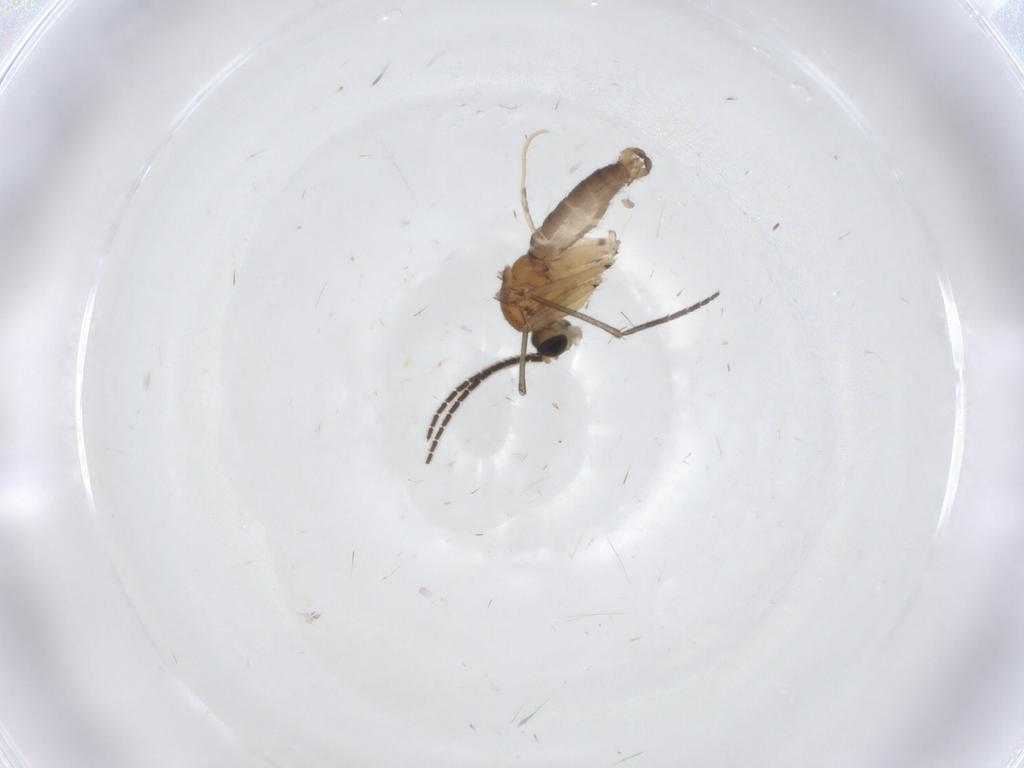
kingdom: Animalia
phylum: Arthropoda
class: Insecta
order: Diptera
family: Sciaridae
